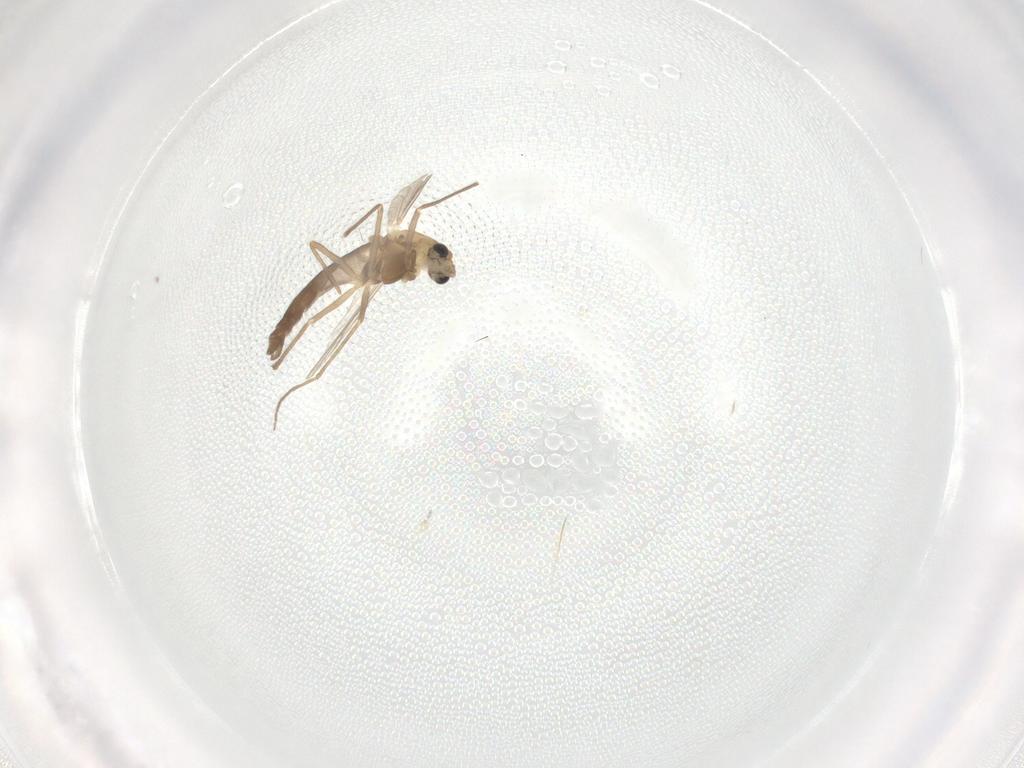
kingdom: Animalia
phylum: Arthropoda
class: Insecta
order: Diptera
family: Chironomidae
